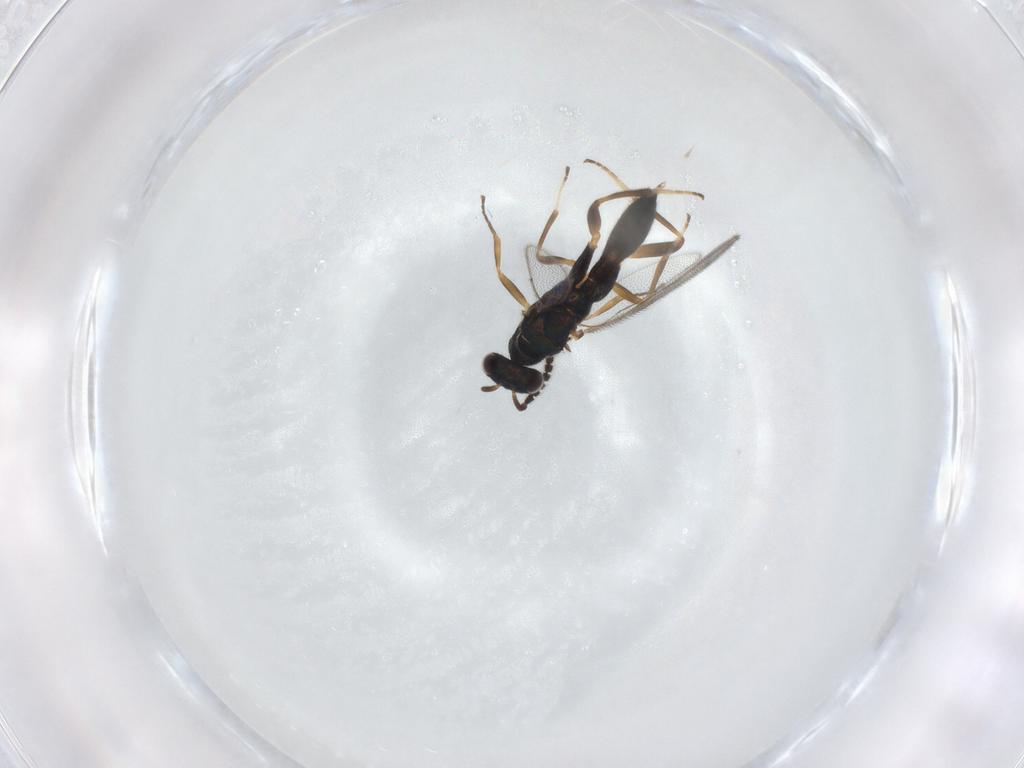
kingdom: Animalia
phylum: Arthropoda
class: Insecta
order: Hymenoptera
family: Cleonyminae
